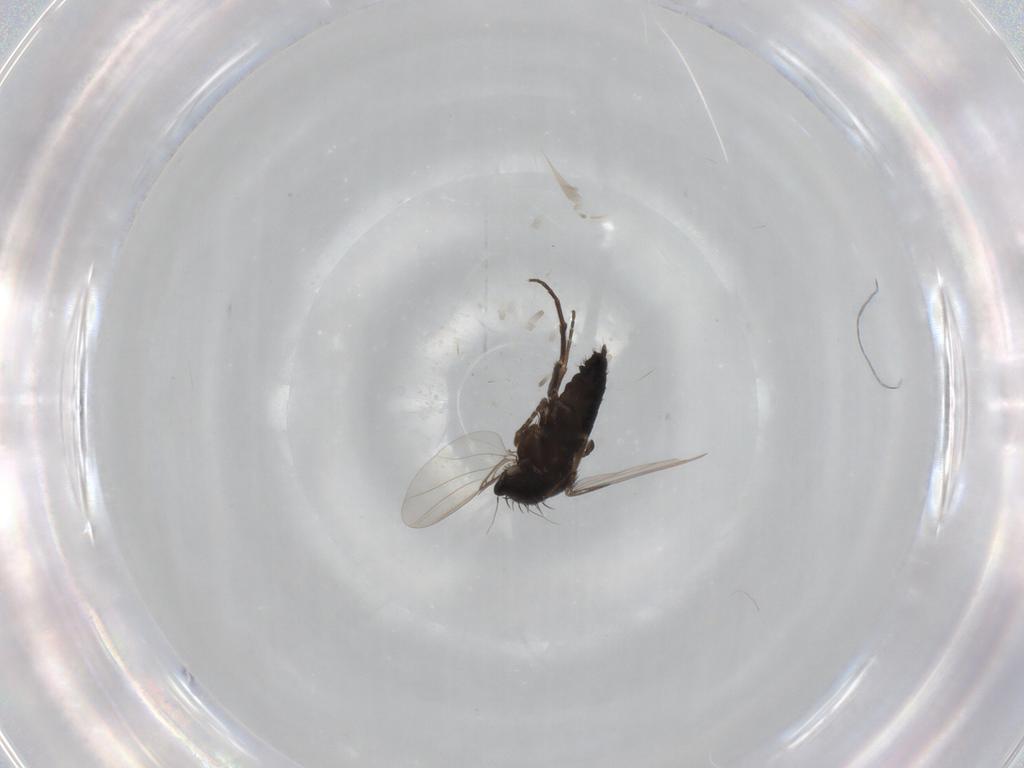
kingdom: Animalia
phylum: Arthropoda
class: Insecta
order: Diptera
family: Phoridae
